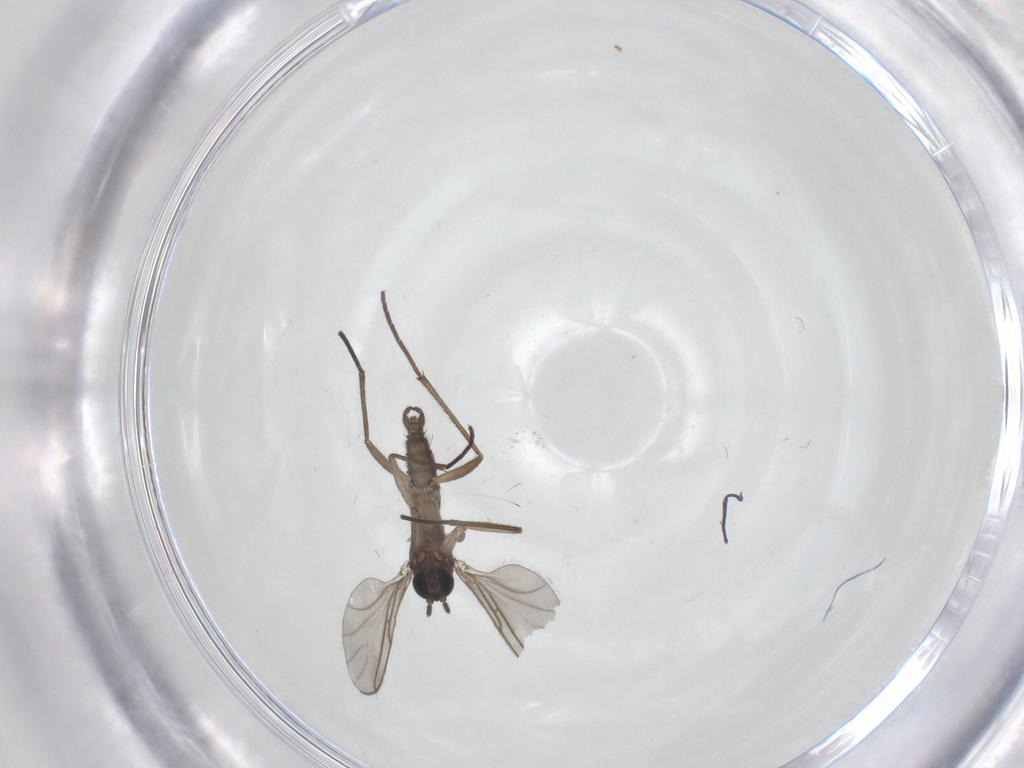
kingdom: Animalia
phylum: Arthropoda
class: Insecta
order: Diptera
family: Sciaridae
